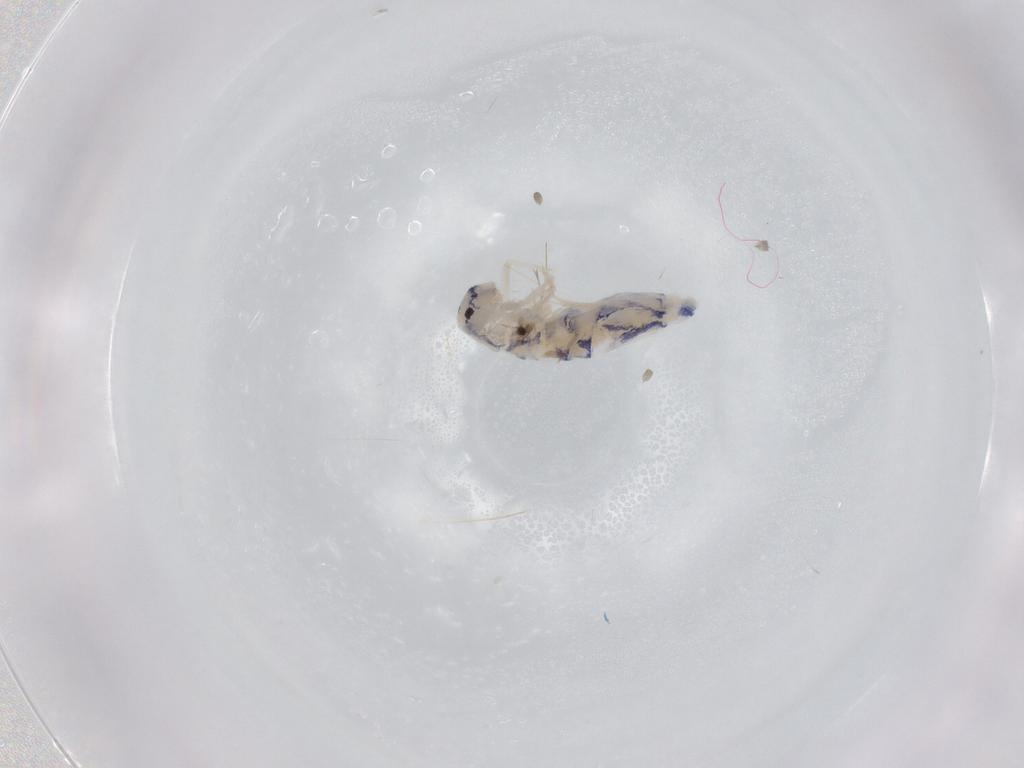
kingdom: Animalia
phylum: Arthropoda
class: Collembola
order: Entomobryomorpha
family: Entomobryidae
